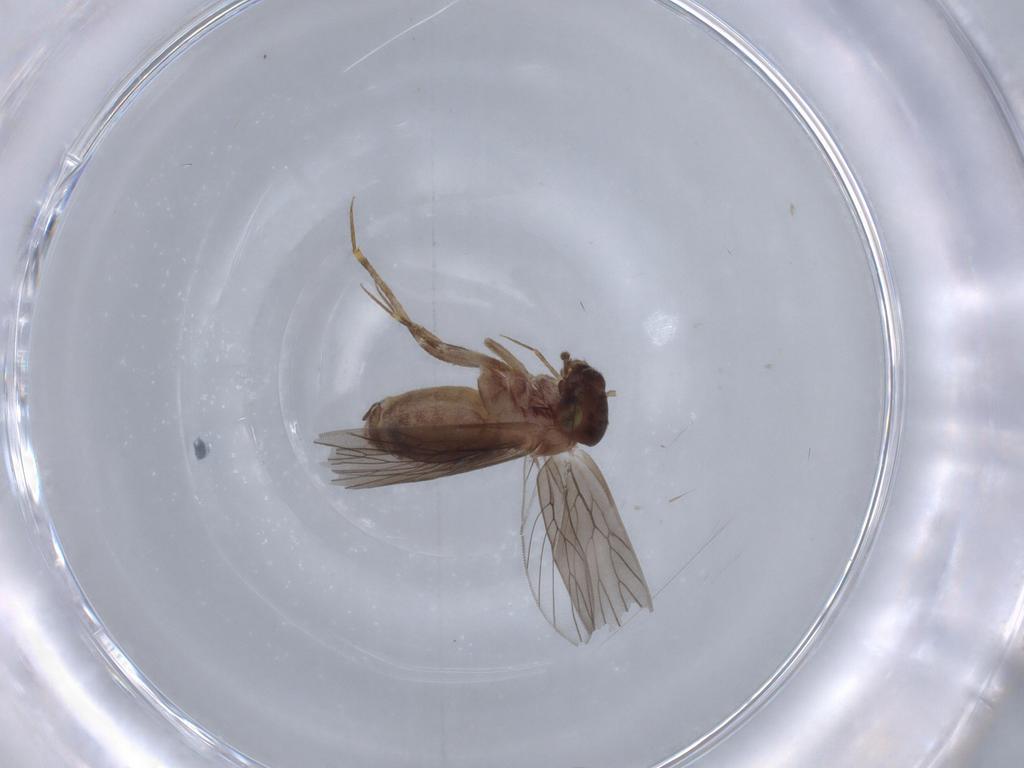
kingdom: Animalia
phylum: Arthropoda
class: Insecta
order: Psocodea
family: Lepidopsocidae
